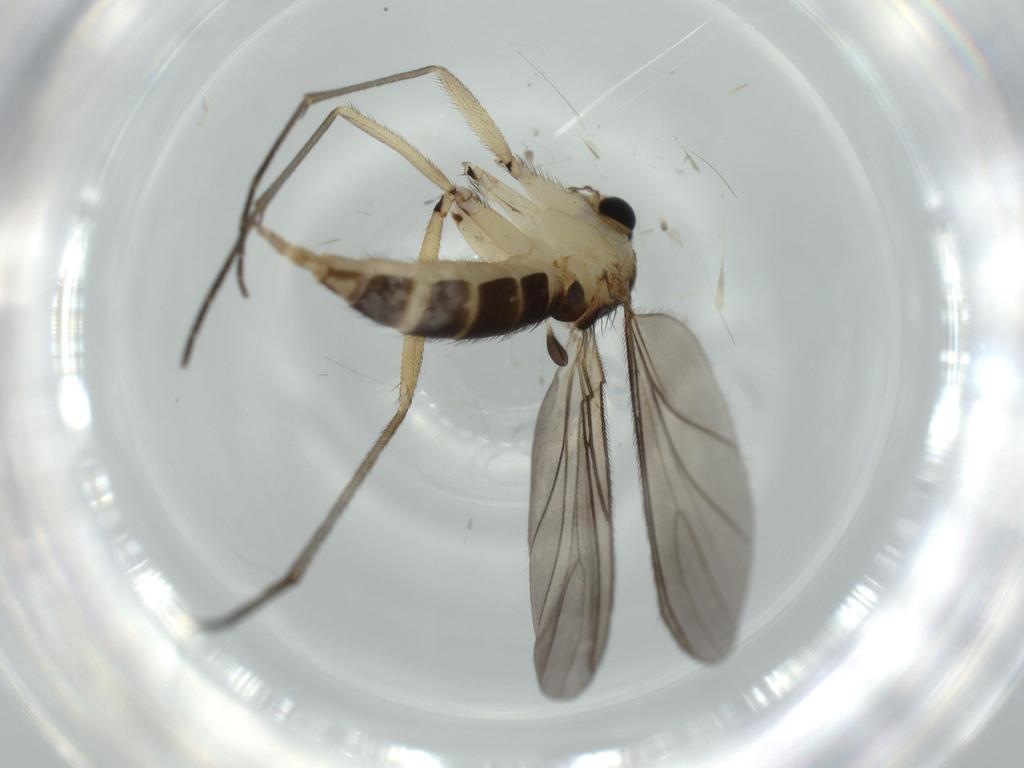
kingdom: Animalia
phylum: Arthropoda
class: Insecta
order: Diptera
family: Sciaridae
